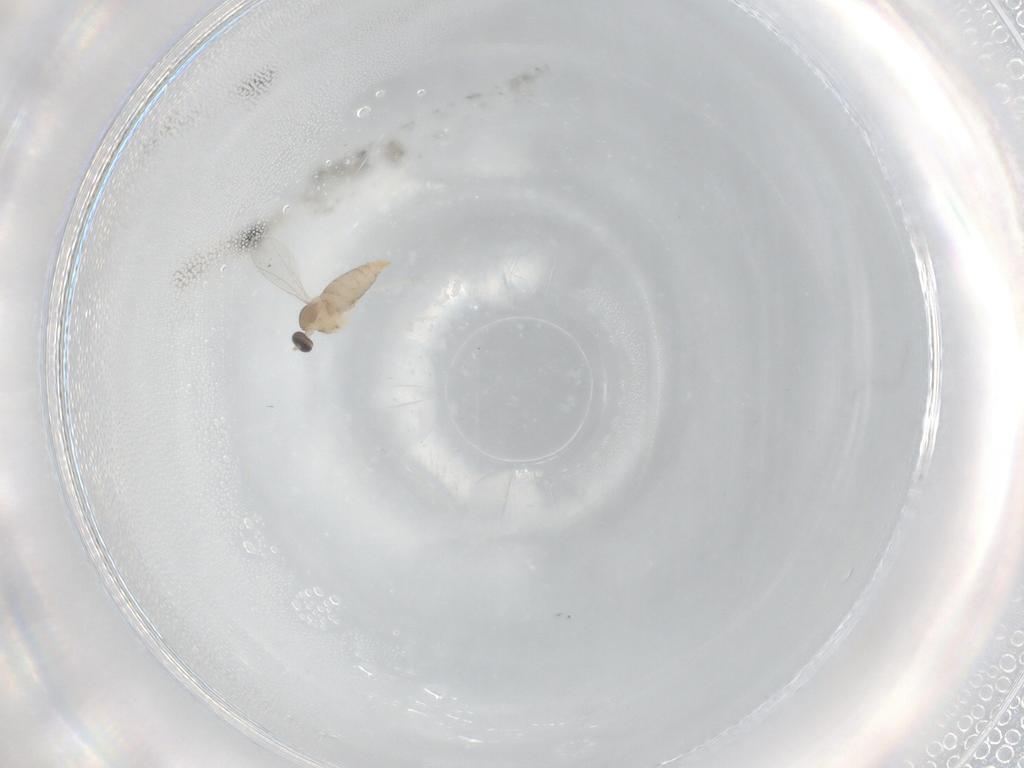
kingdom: Animalia
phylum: Arthropoda
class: Insecta
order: Diptera
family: Cecidomyiidae
